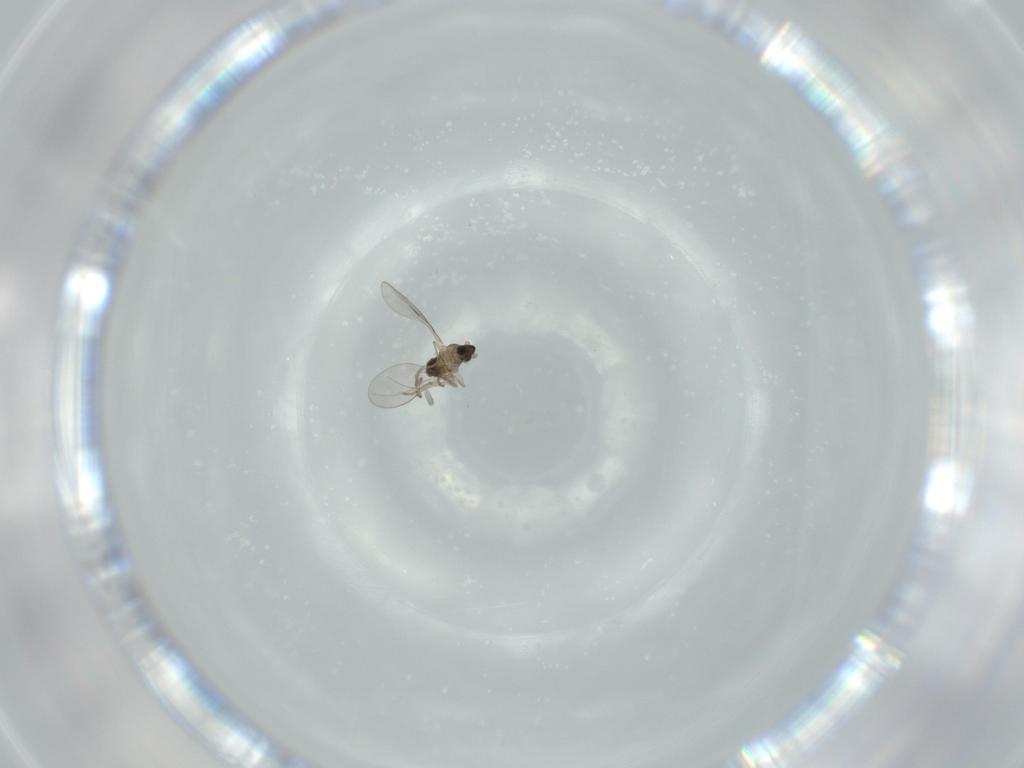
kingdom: Animalia
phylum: Arthropoda
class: Insecta
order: Diptera
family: Cecidomyiidae
